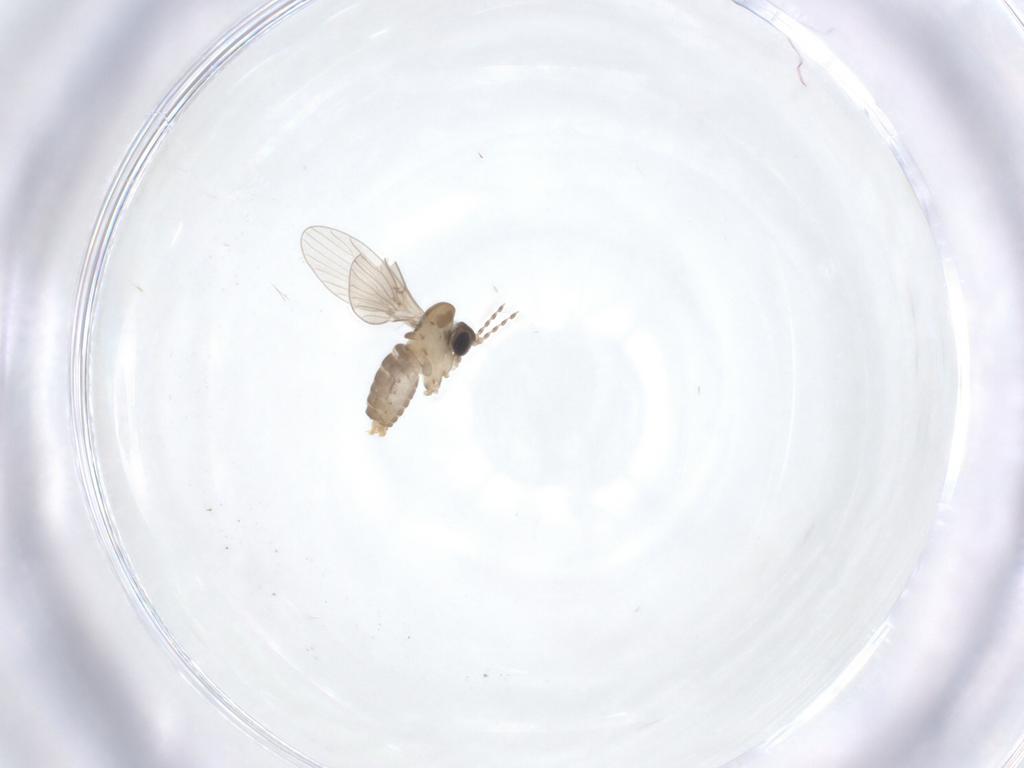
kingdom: Animalia
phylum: Arthropoda
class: Insecta
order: Diptera
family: Psychodidae
